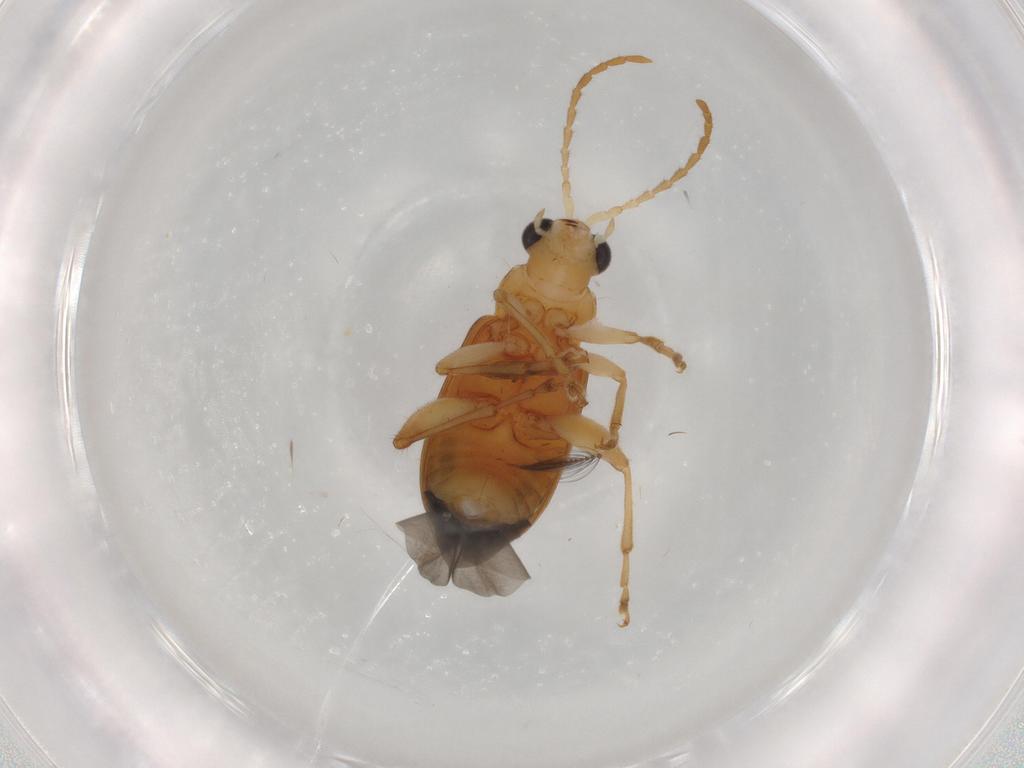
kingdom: Animalia
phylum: Arthropoda
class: Insecta
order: Coleoptera
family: Chrysomelidae
